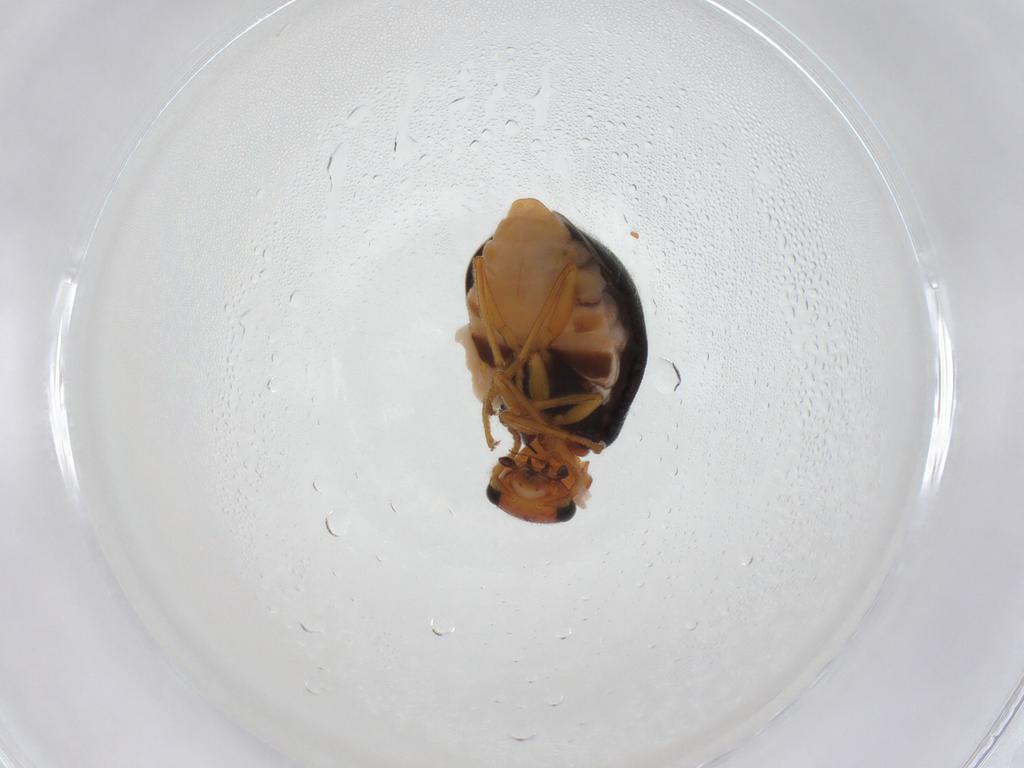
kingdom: Animalia
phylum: Arthropoda
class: Insecta
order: Coleoptera
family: Melyridae
